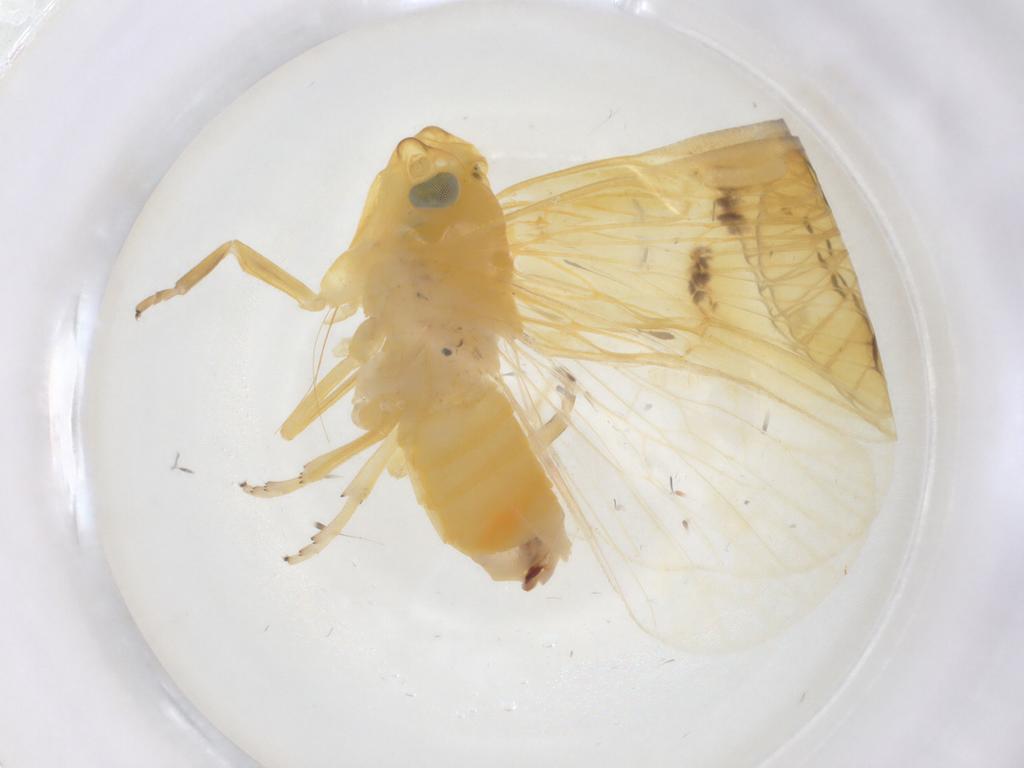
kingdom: Animalia
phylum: Arthropoda
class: Insecta
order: Hemiptera
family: Cixiidae
